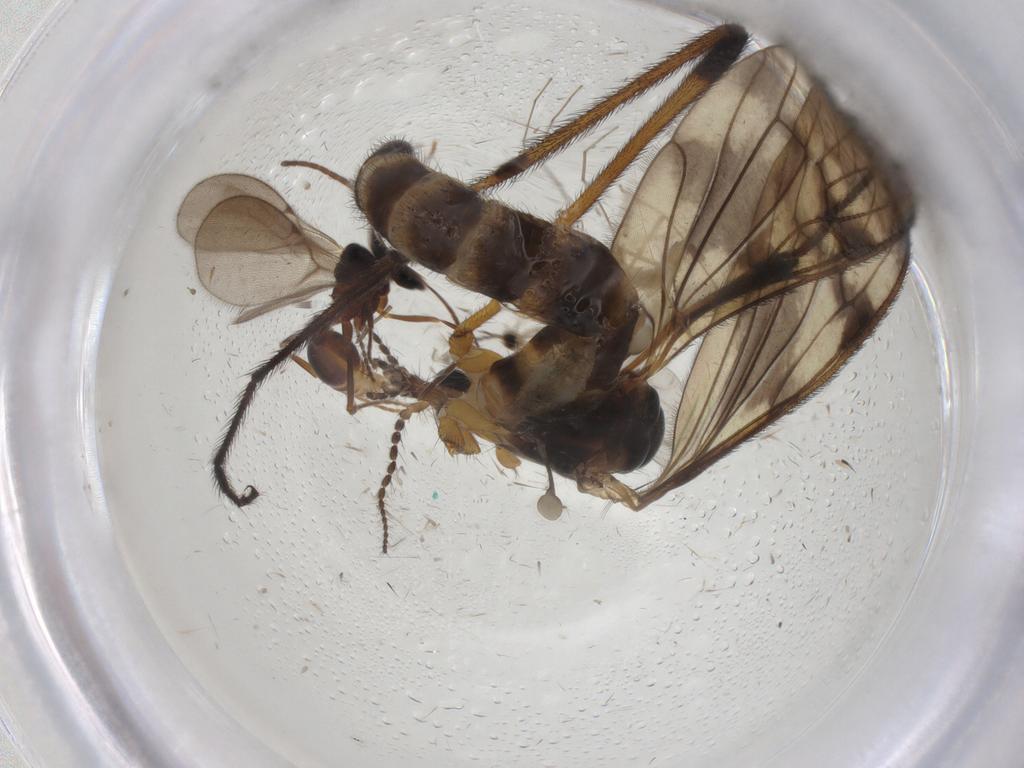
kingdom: Animalia
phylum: Arthropoda
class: Insecta
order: Diptera
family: Limoniidae
